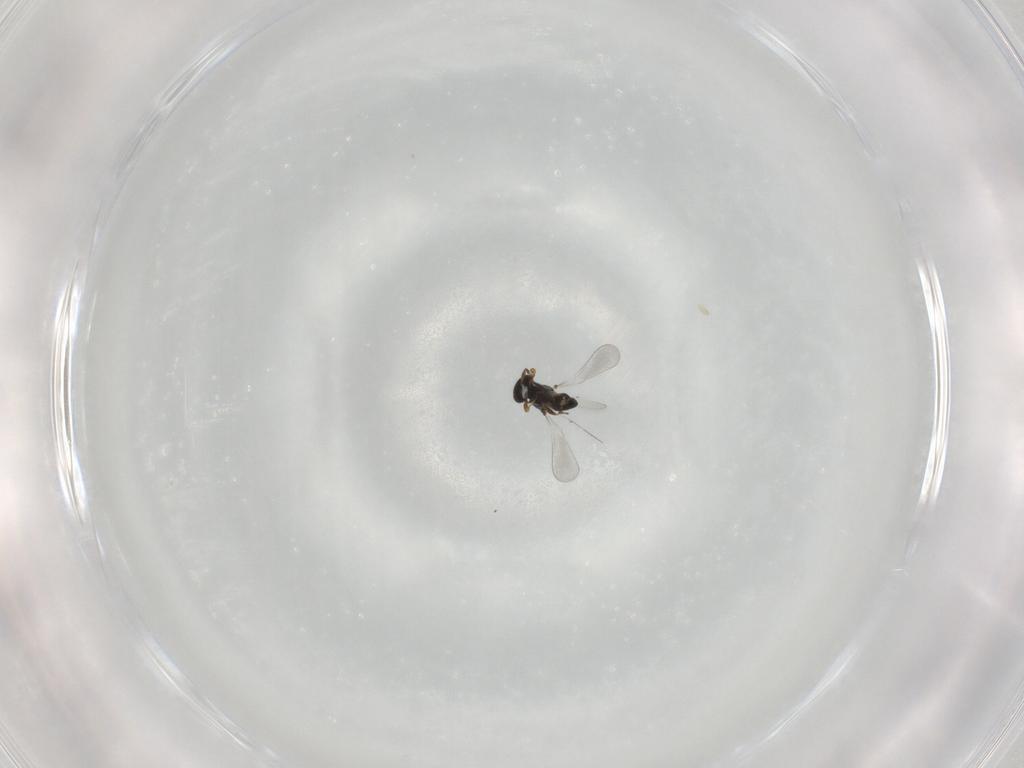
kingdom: Animalia
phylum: Arthropoda
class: Insecta
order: Hymenoptera
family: Platygastridae
